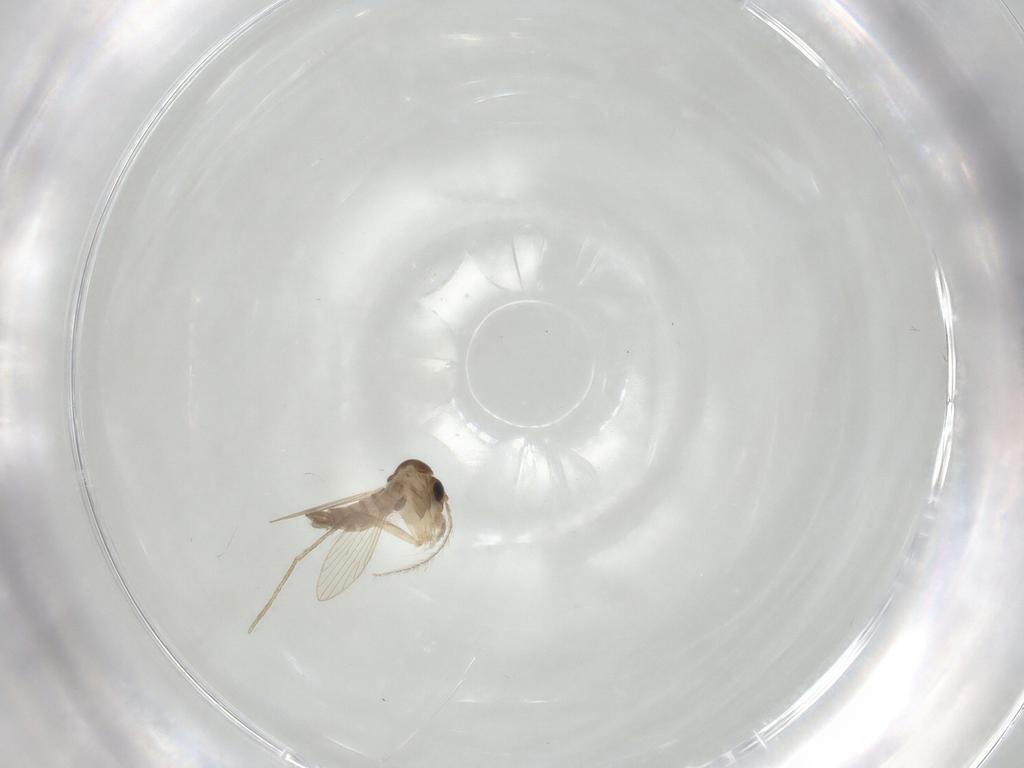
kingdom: Animalia
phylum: Arthropoda
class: Insecta
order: Diptera
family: Psychodidae
